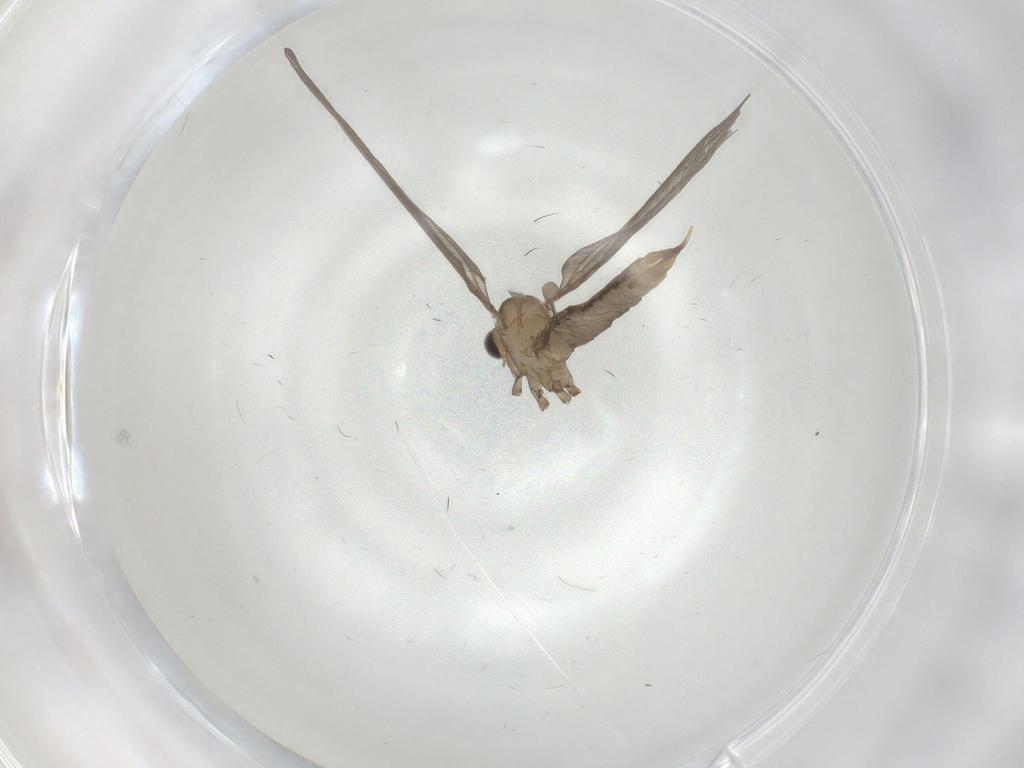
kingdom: Animalia
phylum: Arthropoda
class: Insecta
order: Diptera
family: Limoniidae
